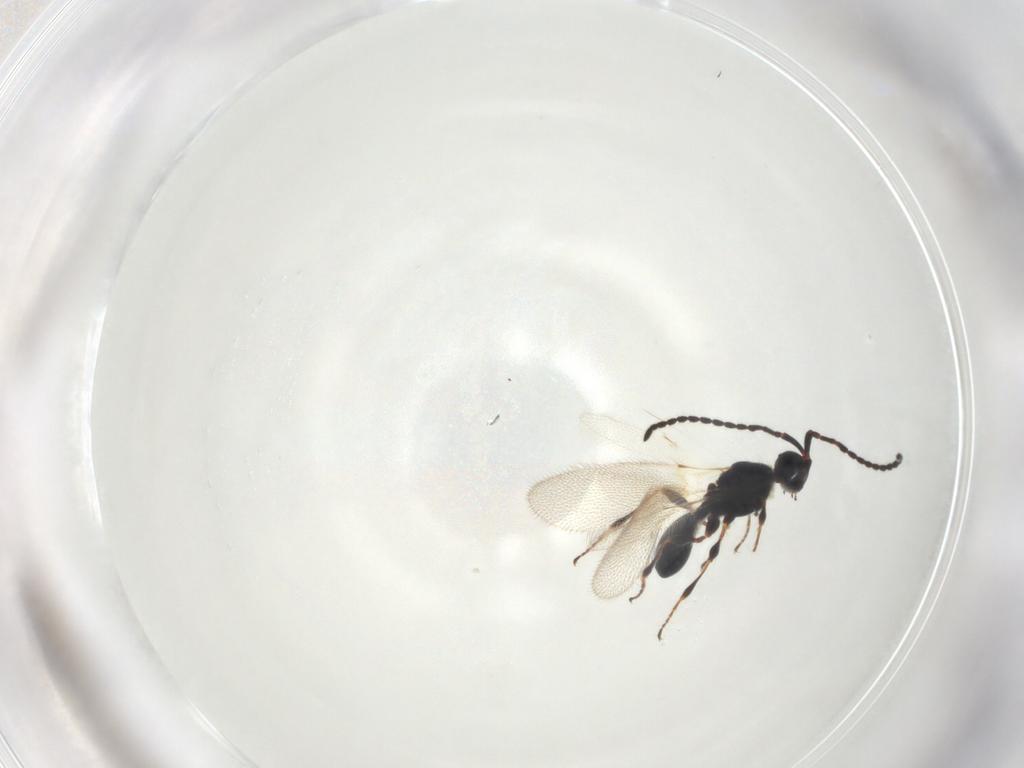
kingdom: Animalia
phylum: Arthropoda
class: Insecta
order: Hymenoptera
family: Diapriidae
